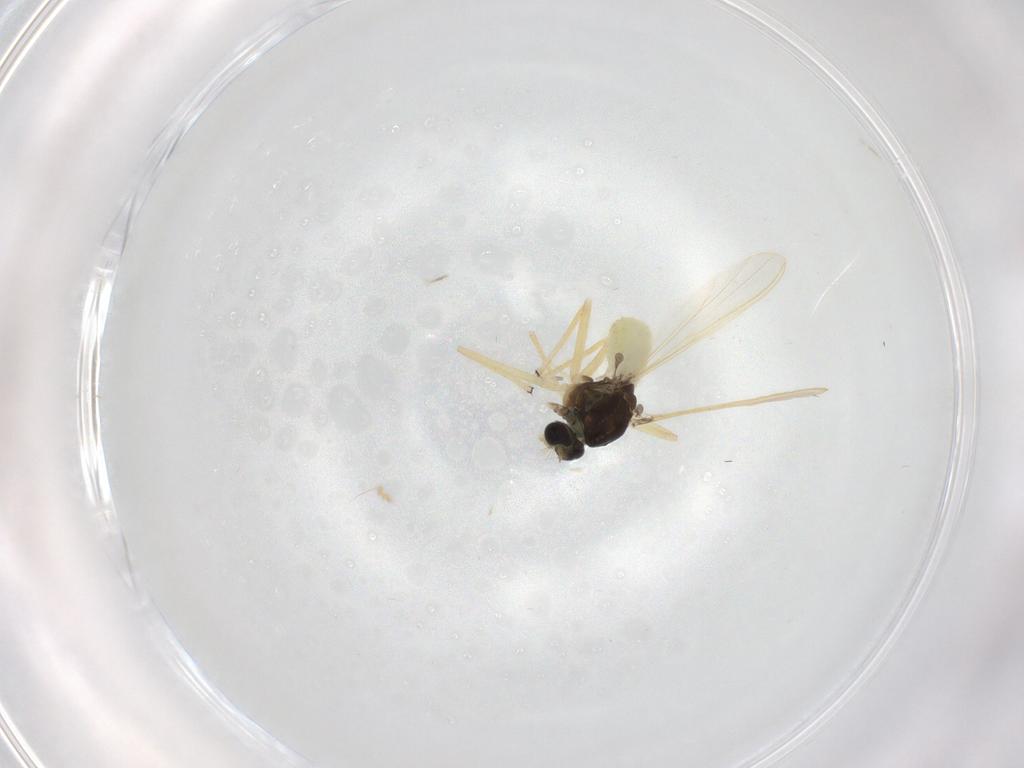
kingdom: Animalia
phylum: Arthropoda
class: Insecta
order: Diptera
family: Chironomidae
